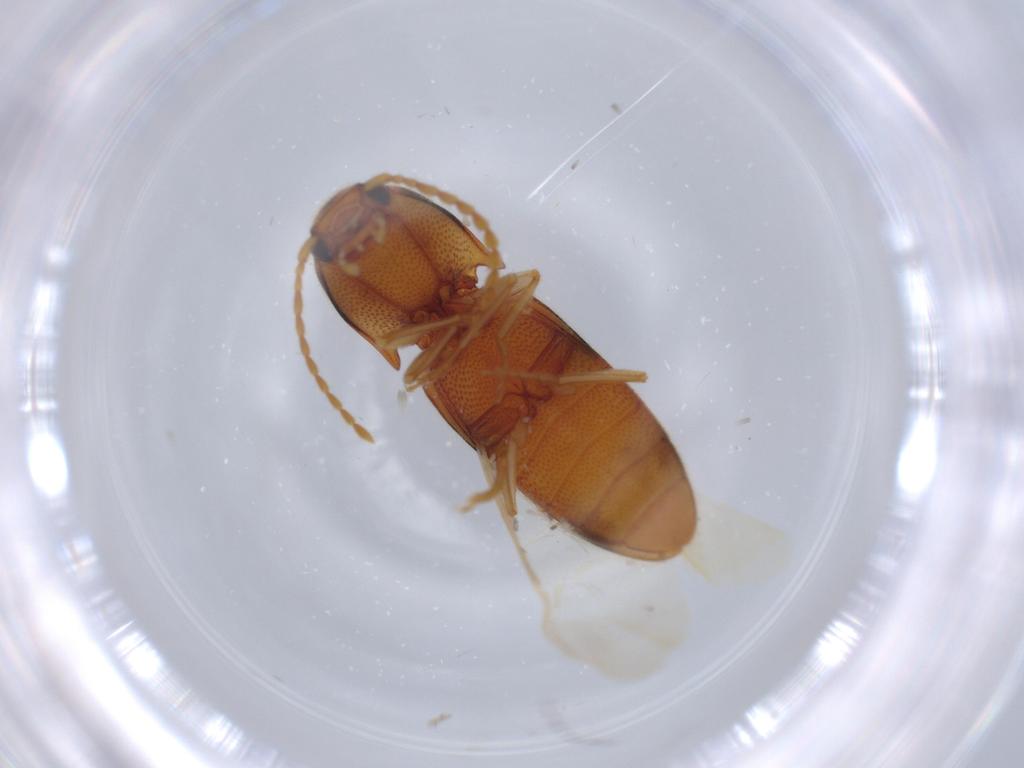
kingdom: Animalia
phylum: Arthropoda
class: Insecta
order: Coleoptera
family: Elateridae
